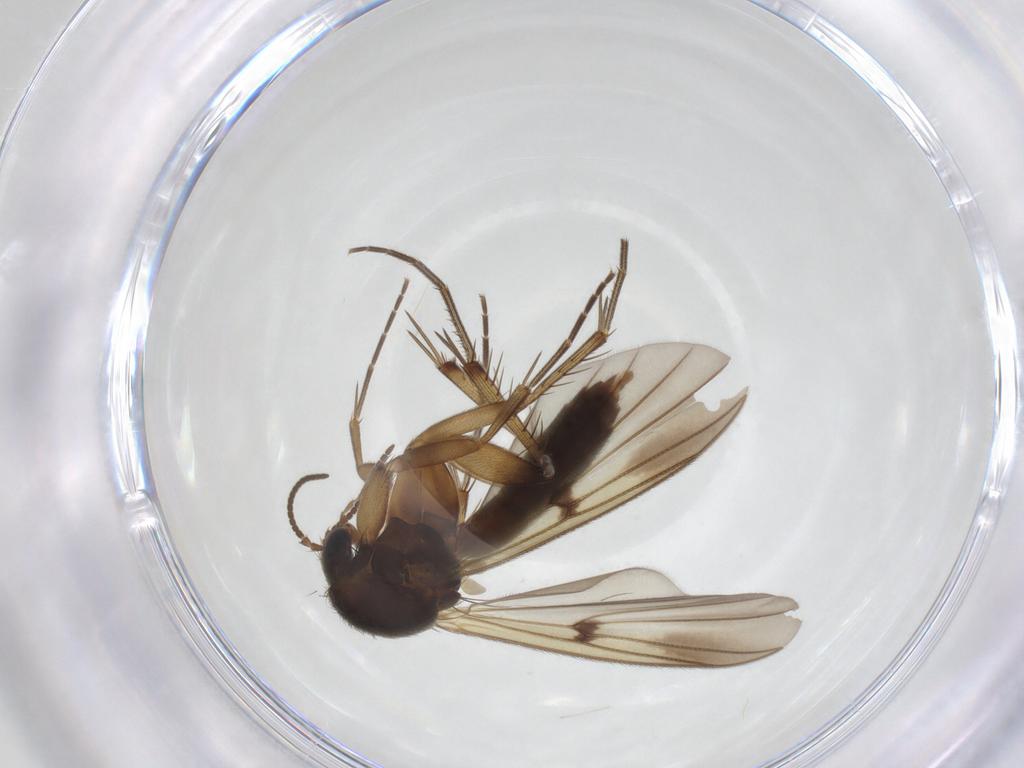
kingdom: Animalia
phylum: Arthropoda
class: Insecta
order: Diptera
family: Mycetophilidae
